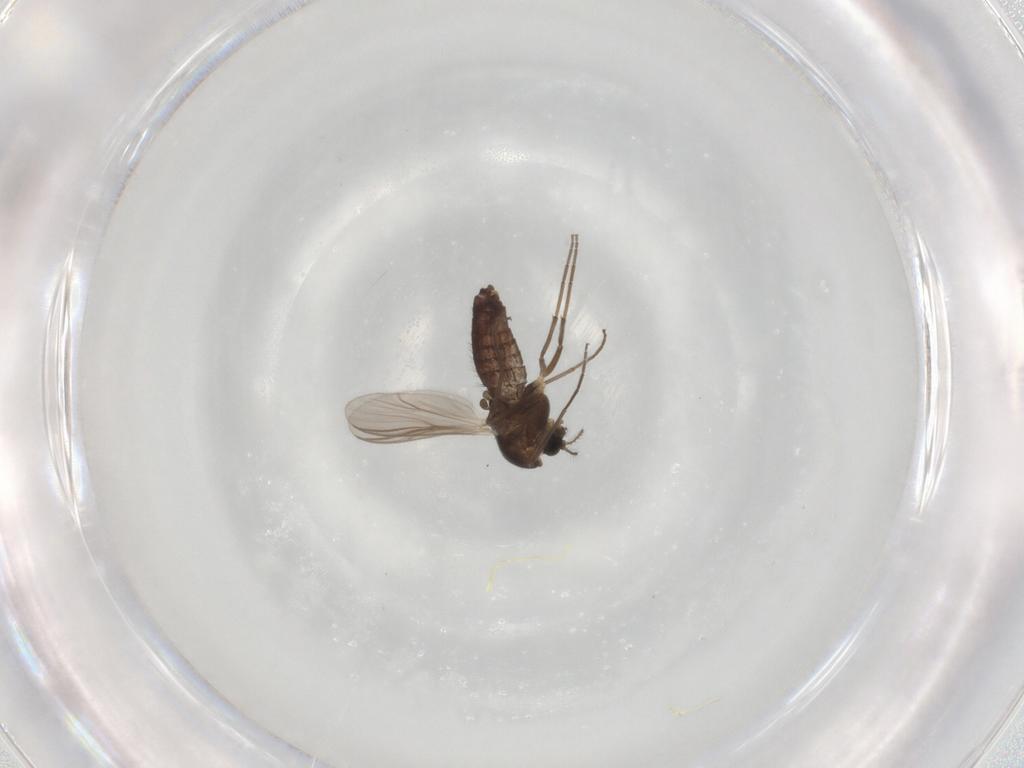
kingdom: Animalia
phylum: Arthropoda
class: Insecta
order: Diptera
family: Chironomidae
